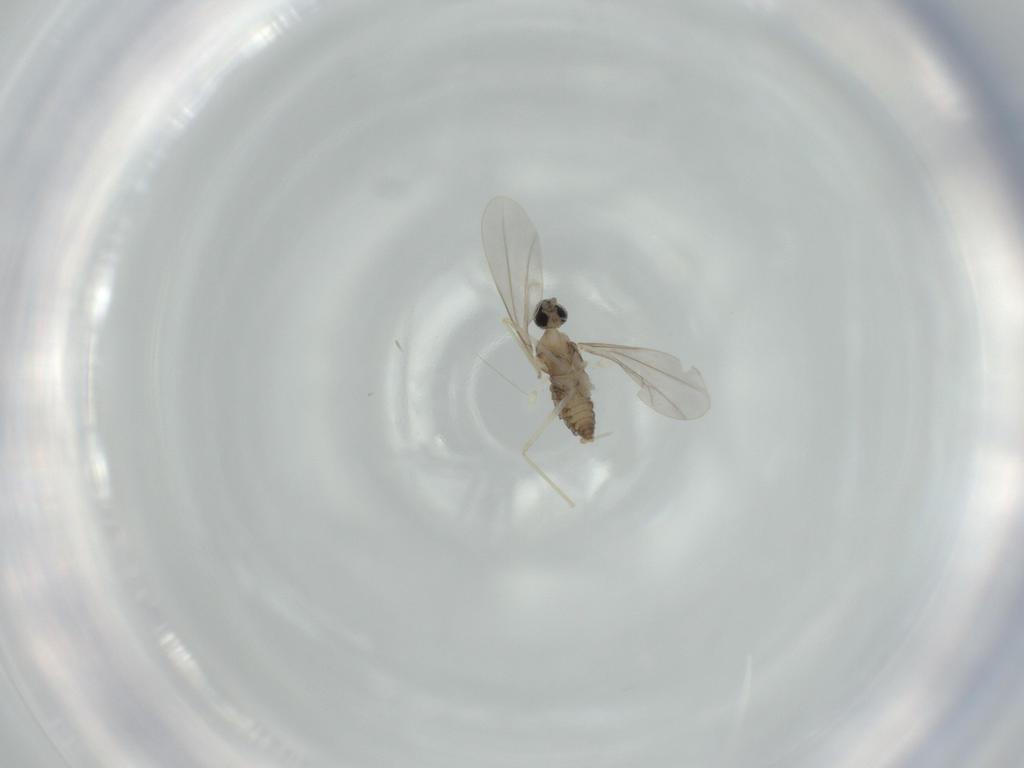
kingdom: Animalia
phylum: Arthropoda
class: Insecta
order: Diptera
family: Cecidomyiidae
